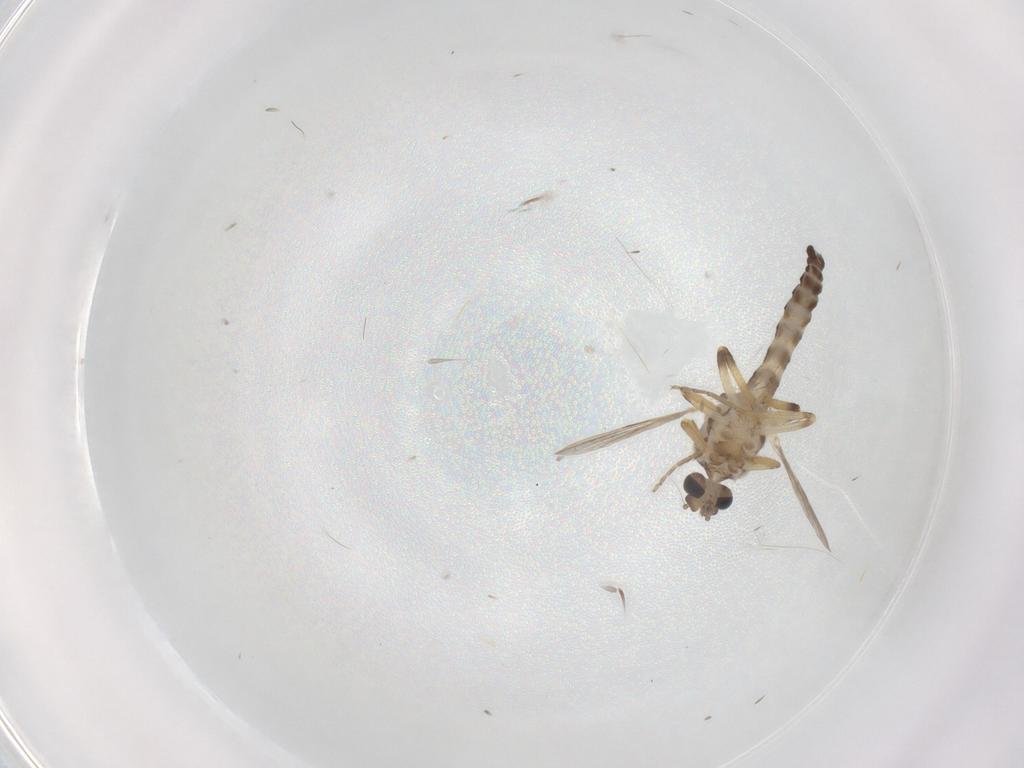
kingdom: Animalia
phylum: Arthropoda
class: Insecta
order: Diptera
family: Ceratopogonidae
